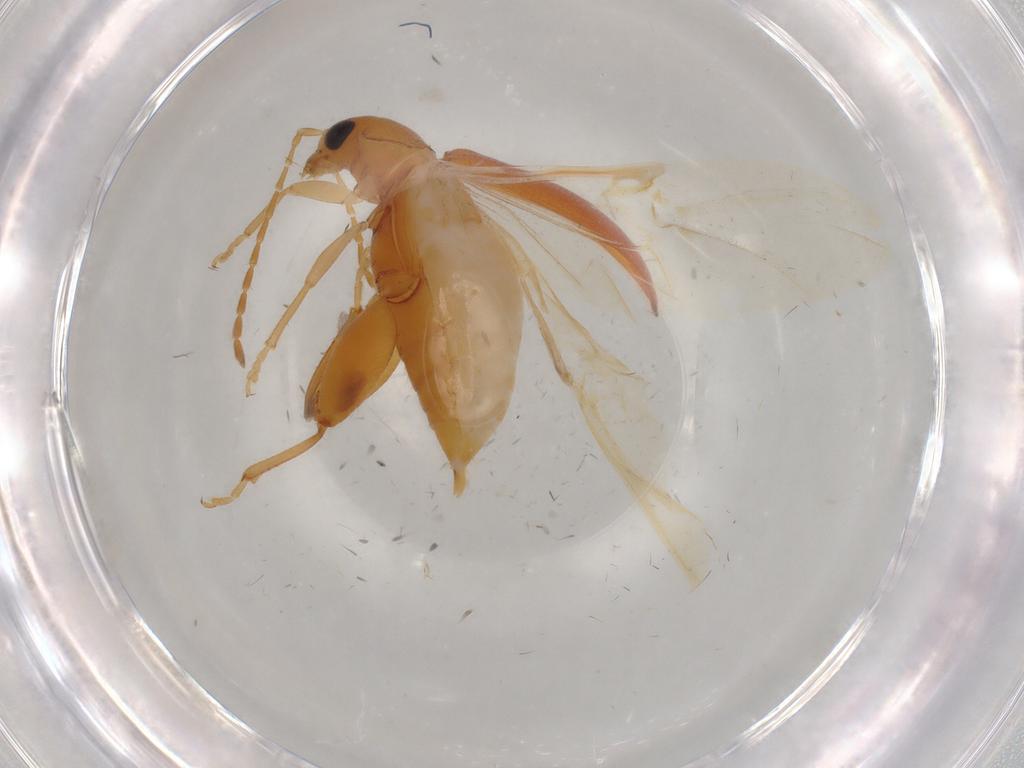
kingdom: Animalia
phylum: Arthropoda
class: Insecta
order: Coleoptera
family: Chrysomelidae
